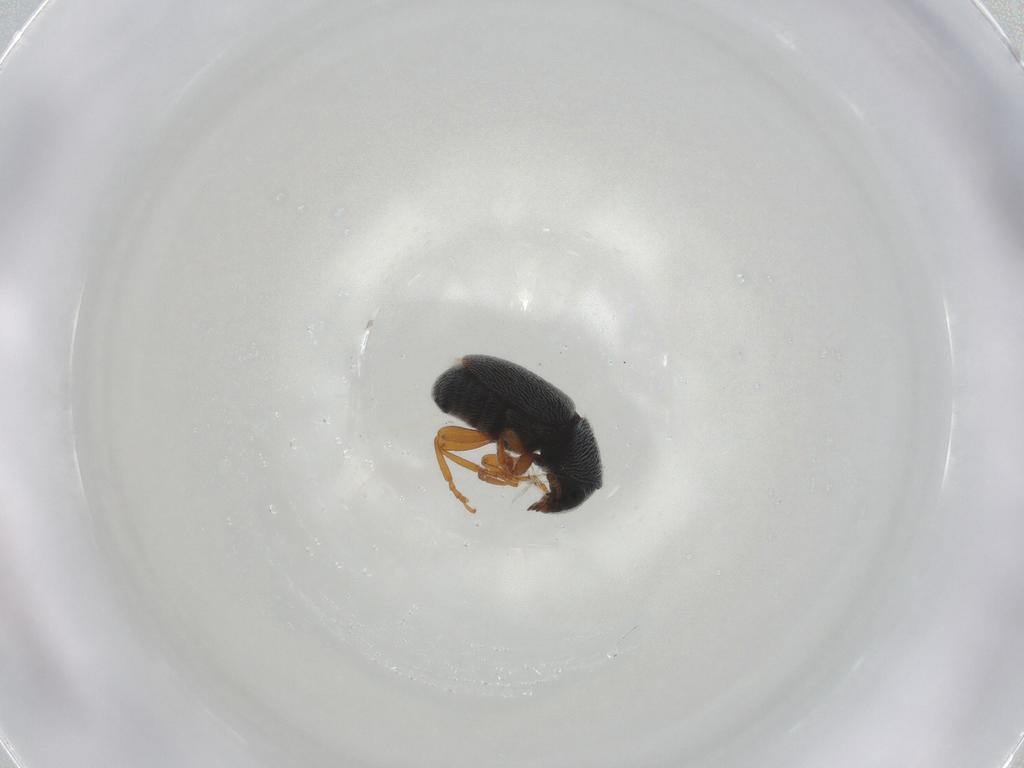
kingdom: Animalia
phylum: Arthropoda
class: Insecta
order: Coleoptera
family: Anthribidae
